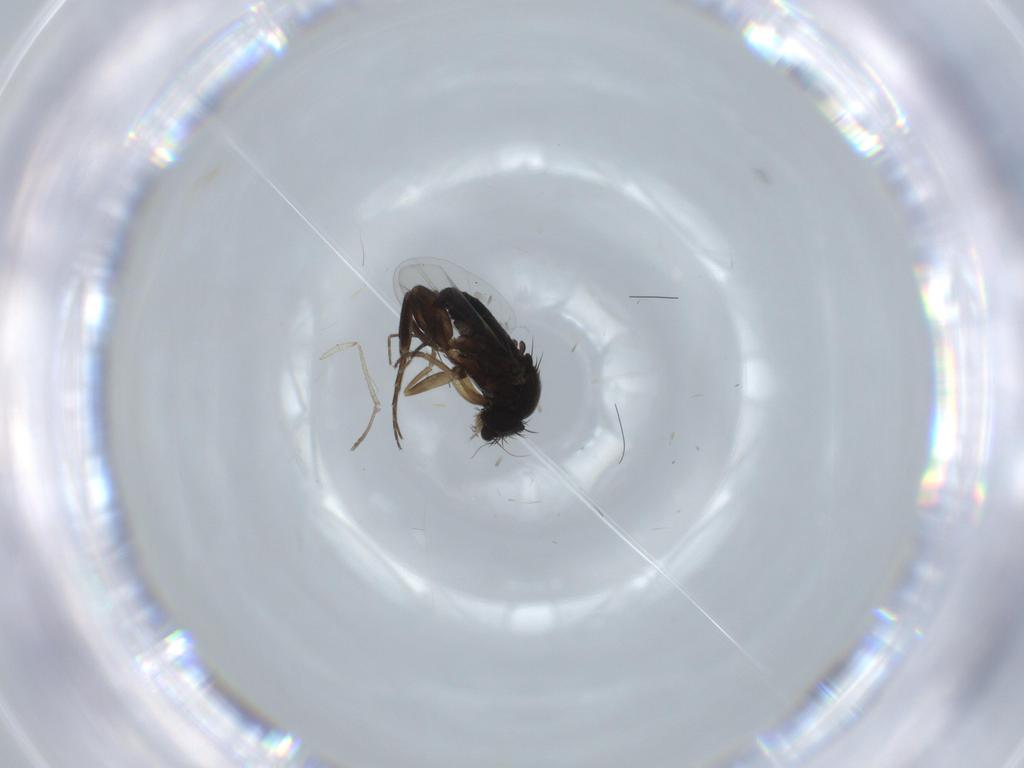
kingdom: Animalia
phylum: Arthropoda
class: Insecta
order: Diptera
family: Phoridae
